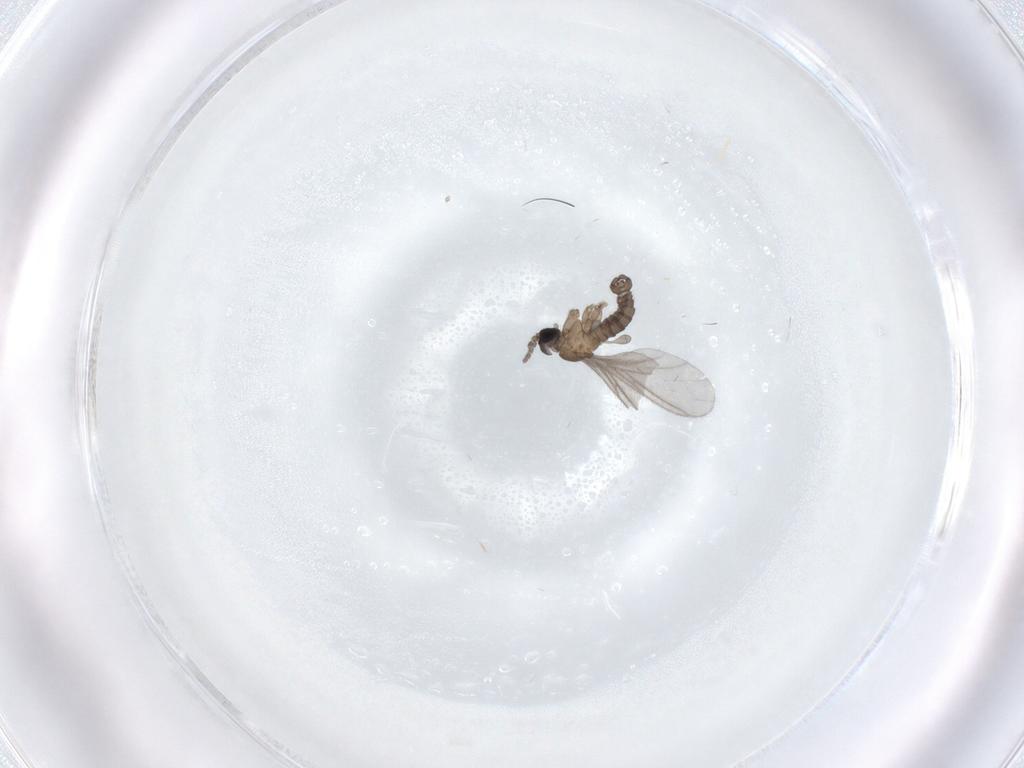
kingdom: Animalia
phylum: Arthropoda
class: Insecta
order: Diptera
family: Sciaridae
